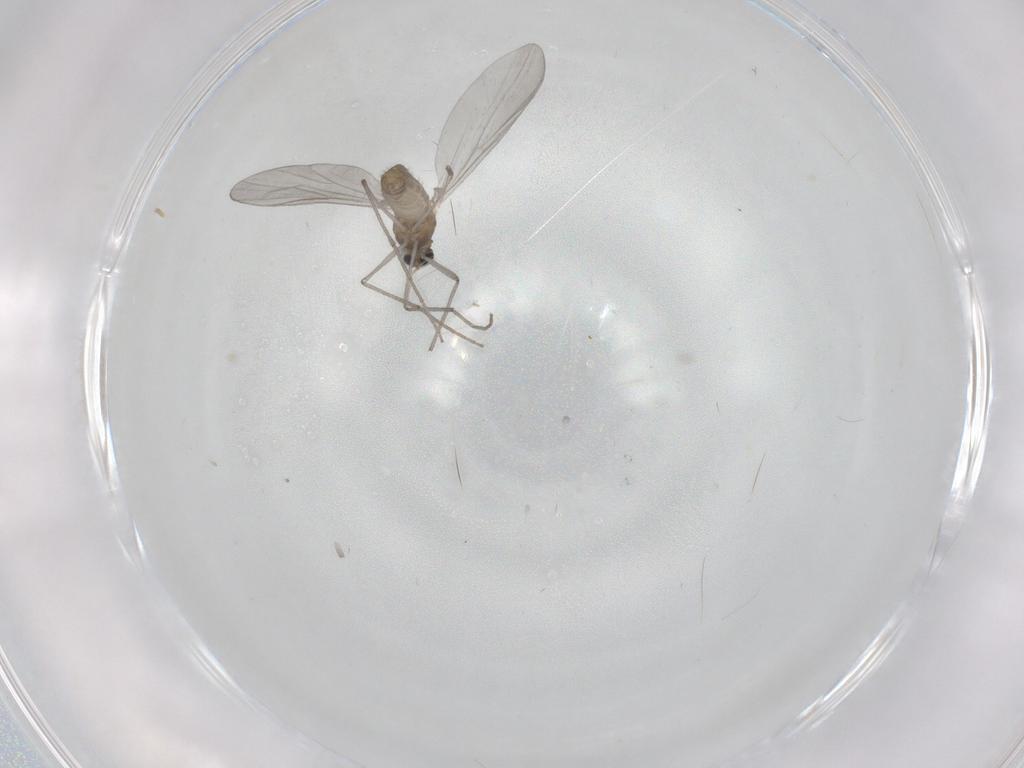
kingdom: Animalia
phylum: Arthropoda
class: Insecta
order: Diptera
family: Chironomidae
